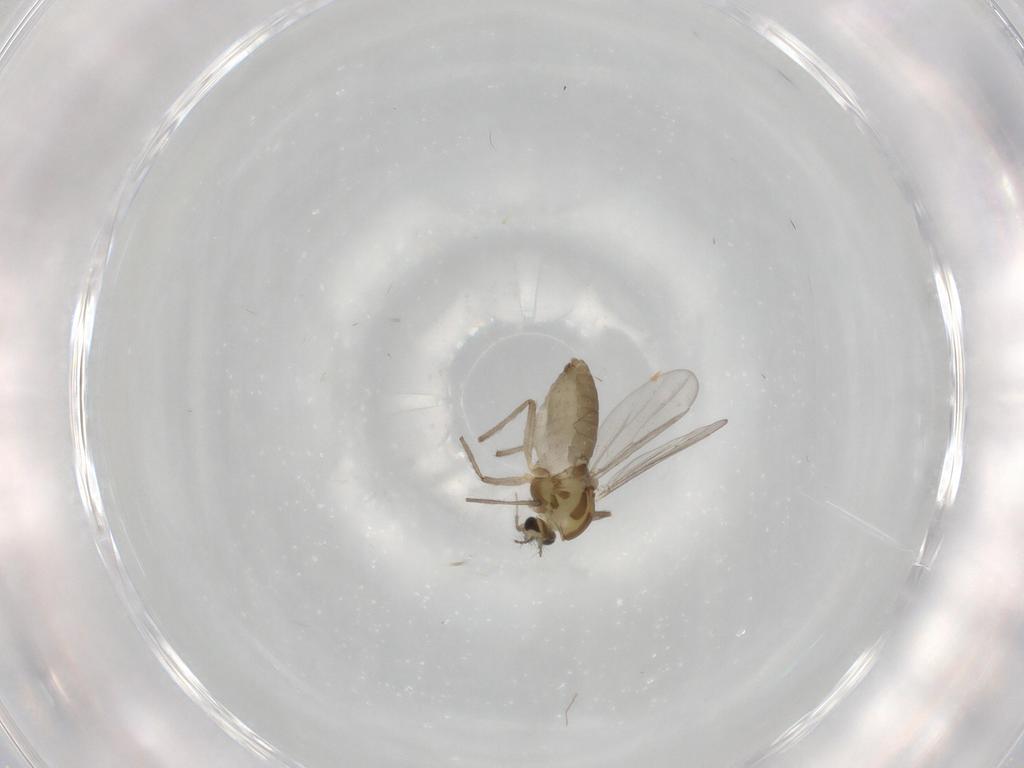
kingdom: Animalia
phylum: Arthropoda
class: Insecta
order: Diptera
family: Chironomidae
